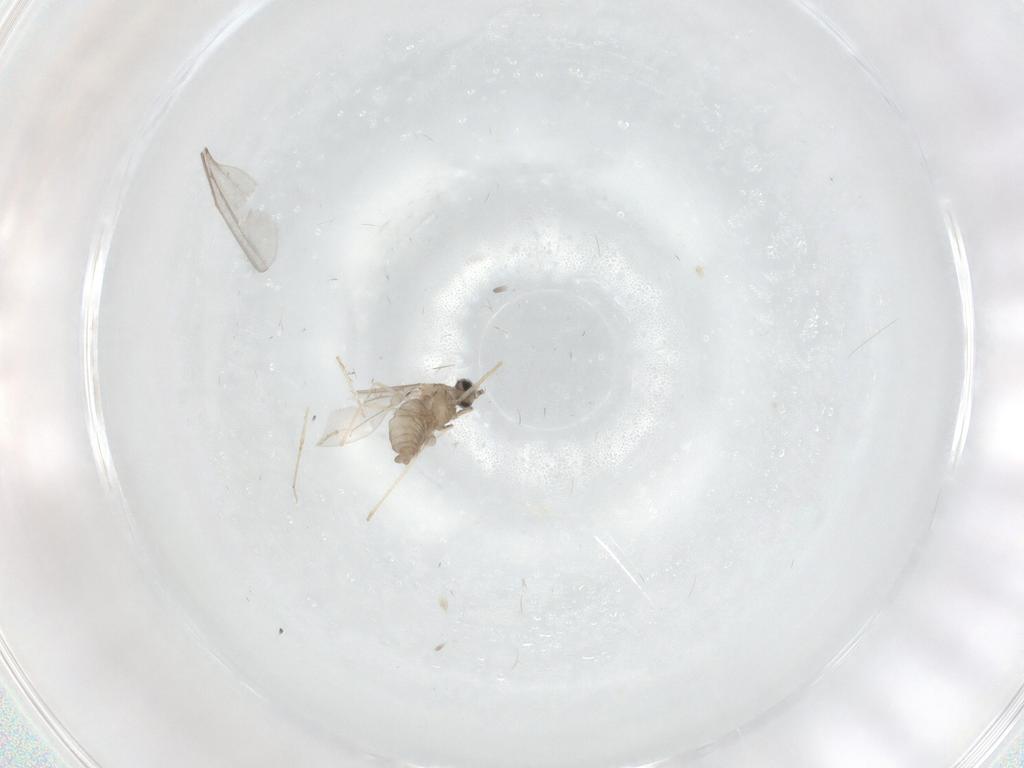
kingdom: Animalia
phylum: Arthropoda
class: Insecta
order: Diptera
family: Cecidomyiidae
